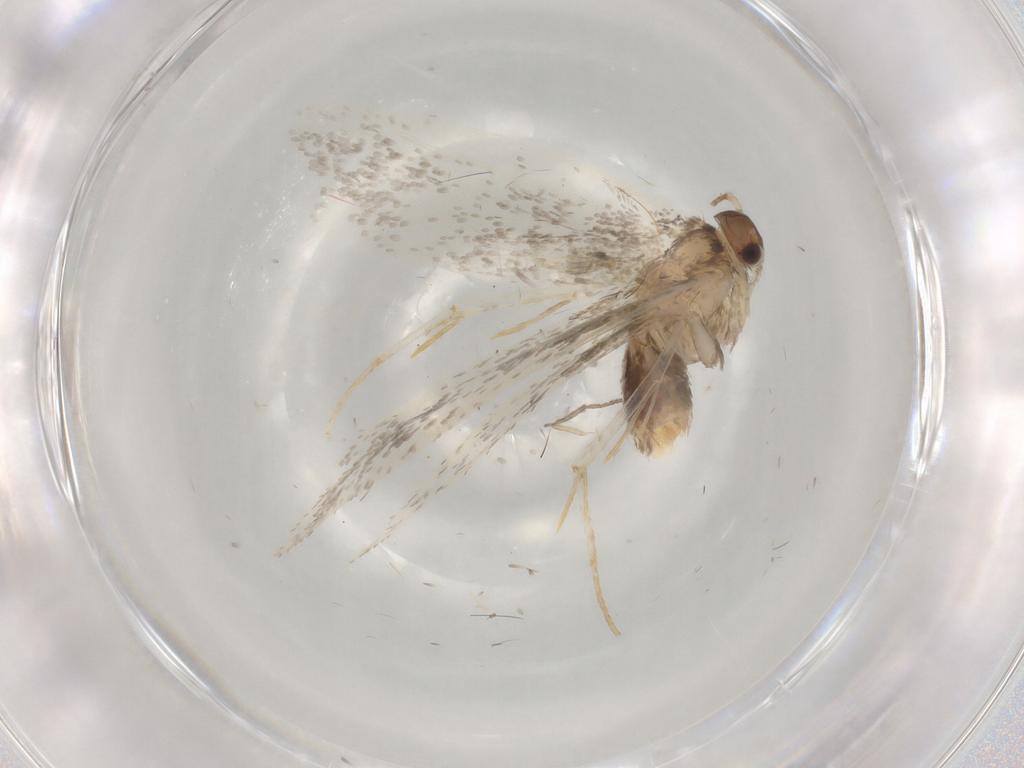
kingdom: Animalia
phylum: Arthropoda
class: Insecta
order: Lepidoptera
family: Dryadaulidae
